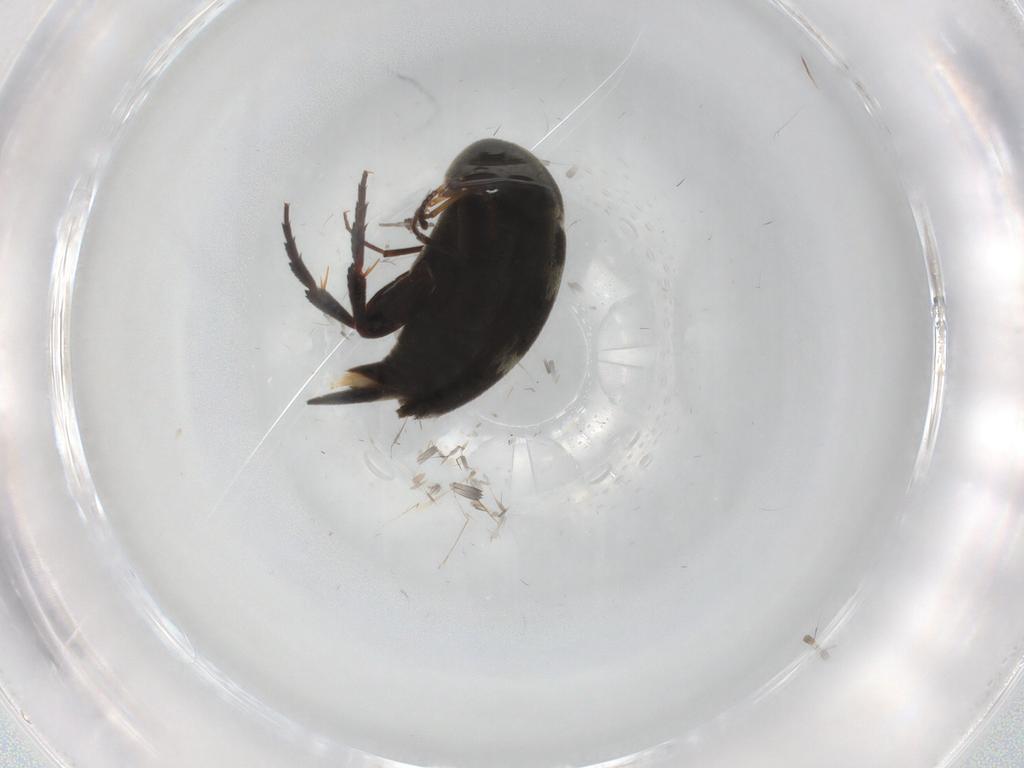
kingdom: Animalia
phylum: Arthropoda
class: Insecta
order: Coleoptera
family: Mordellidae
